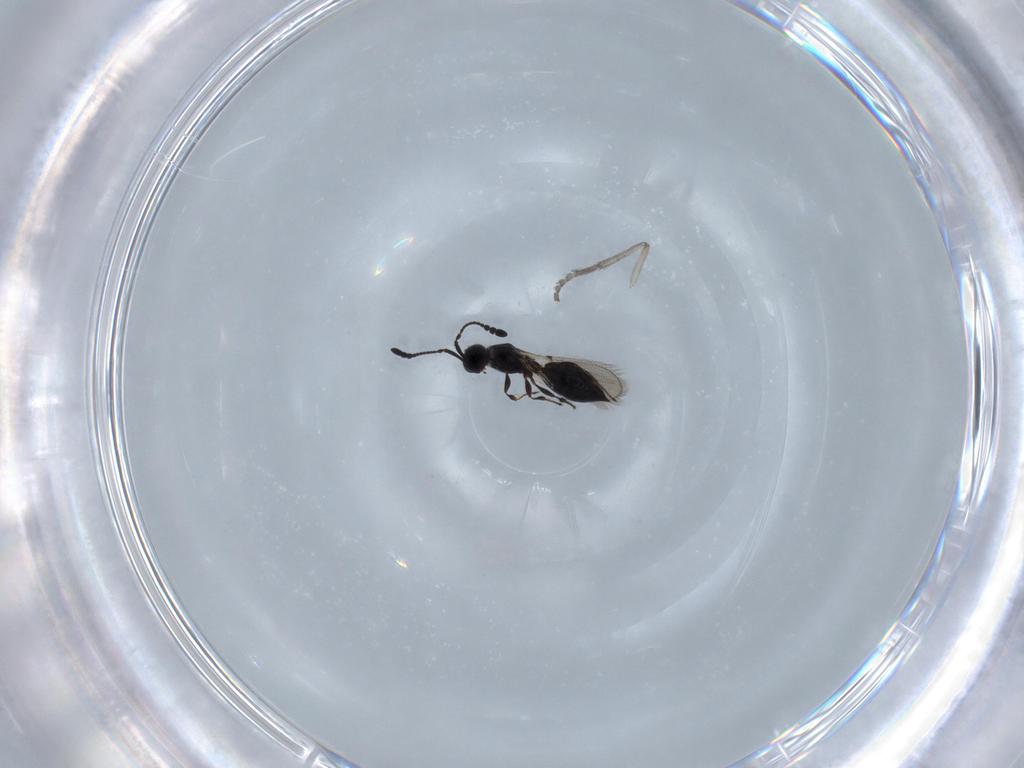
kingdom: Animalia
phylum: Arthropoda
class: Insecta
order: Hymenoptera
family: Diapriidae
